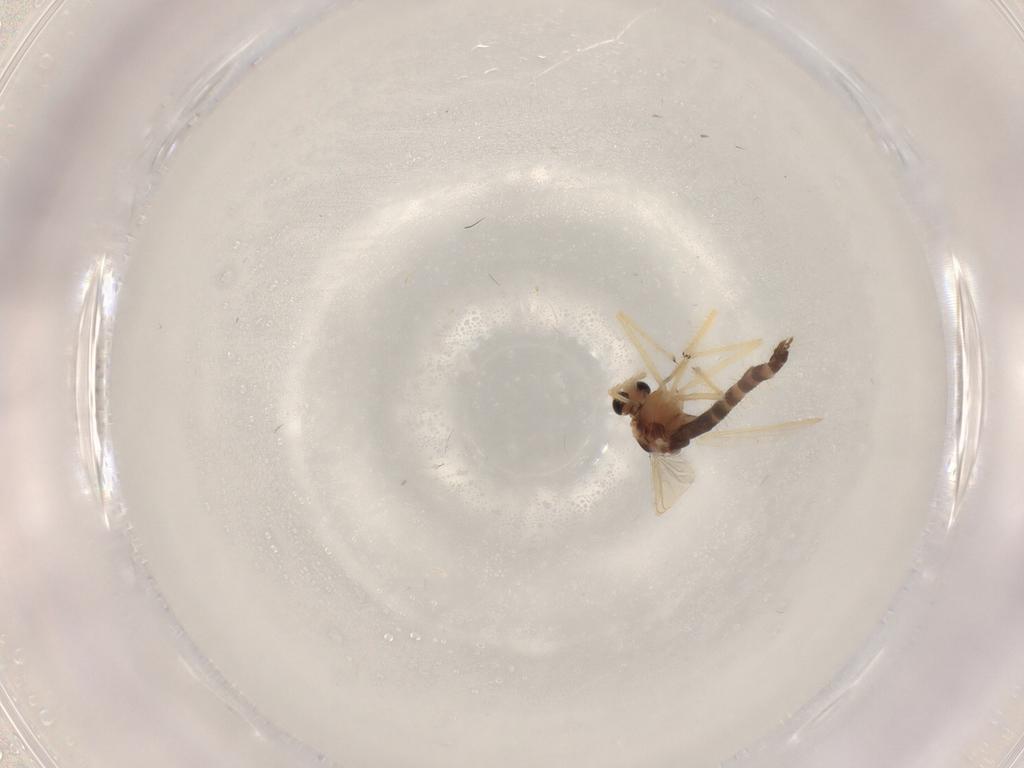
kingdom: Animalia
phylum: Arthropoda
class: Insecta
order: Diptera
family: Chironomidae
